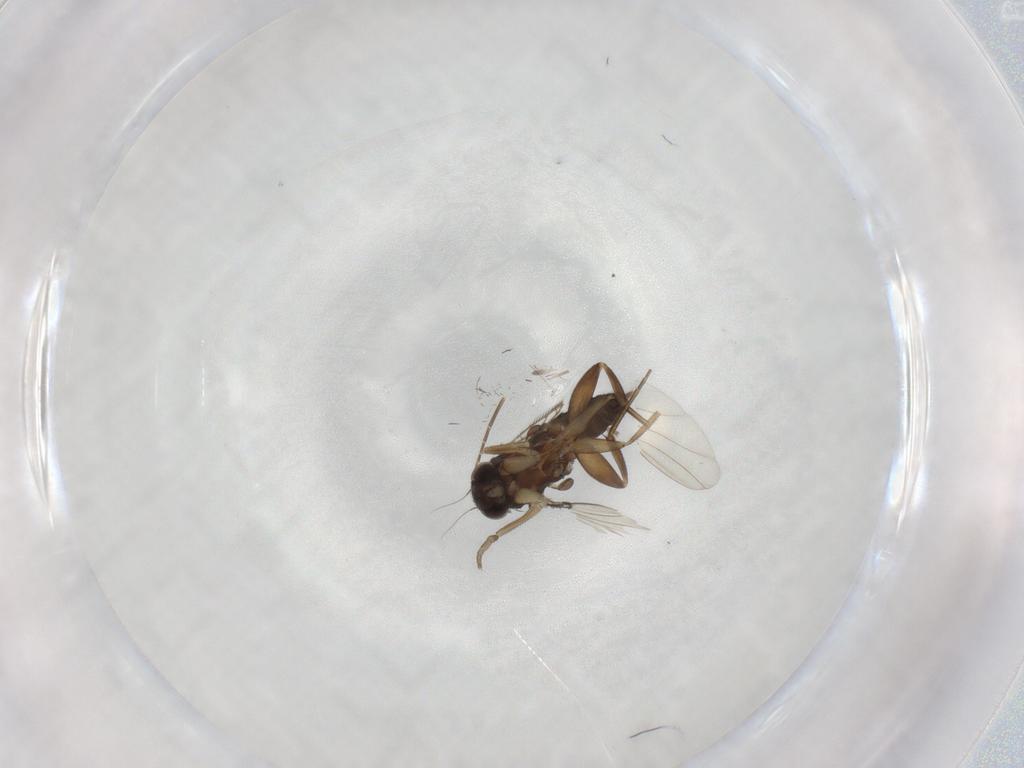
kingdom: Animalia
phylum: Arthropoda
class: Insecta
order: Diptera
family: Phoridae
